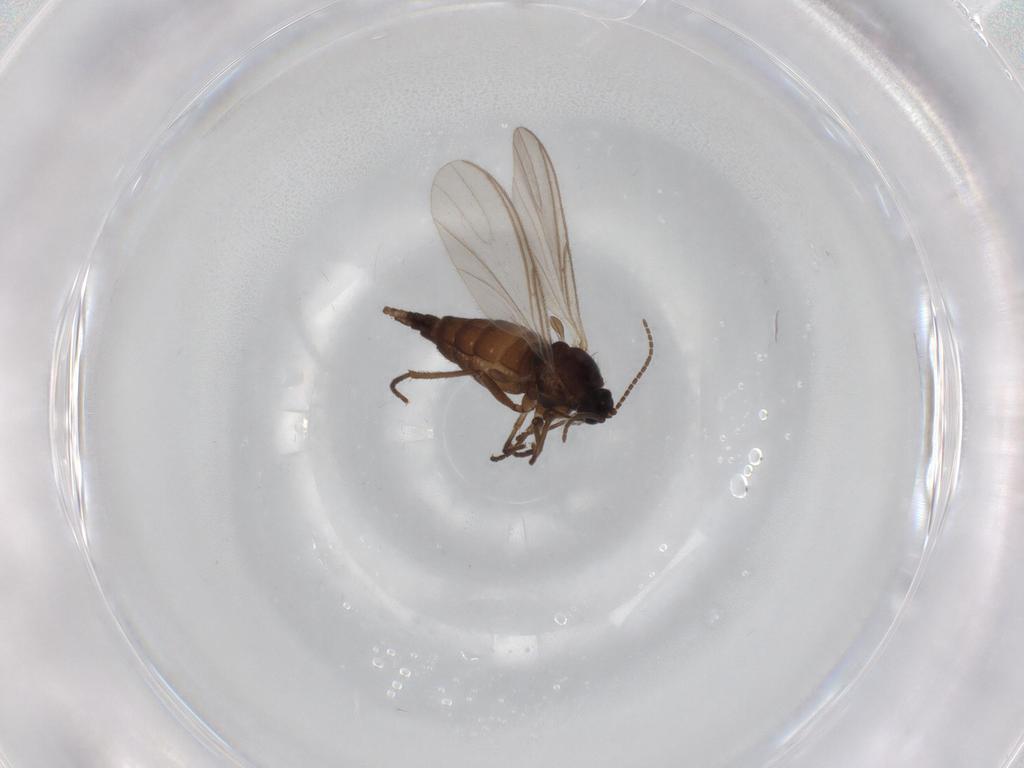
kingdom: Animalia
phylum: Arthropoda
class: Insecta
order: Diptera
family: Sciaridae
